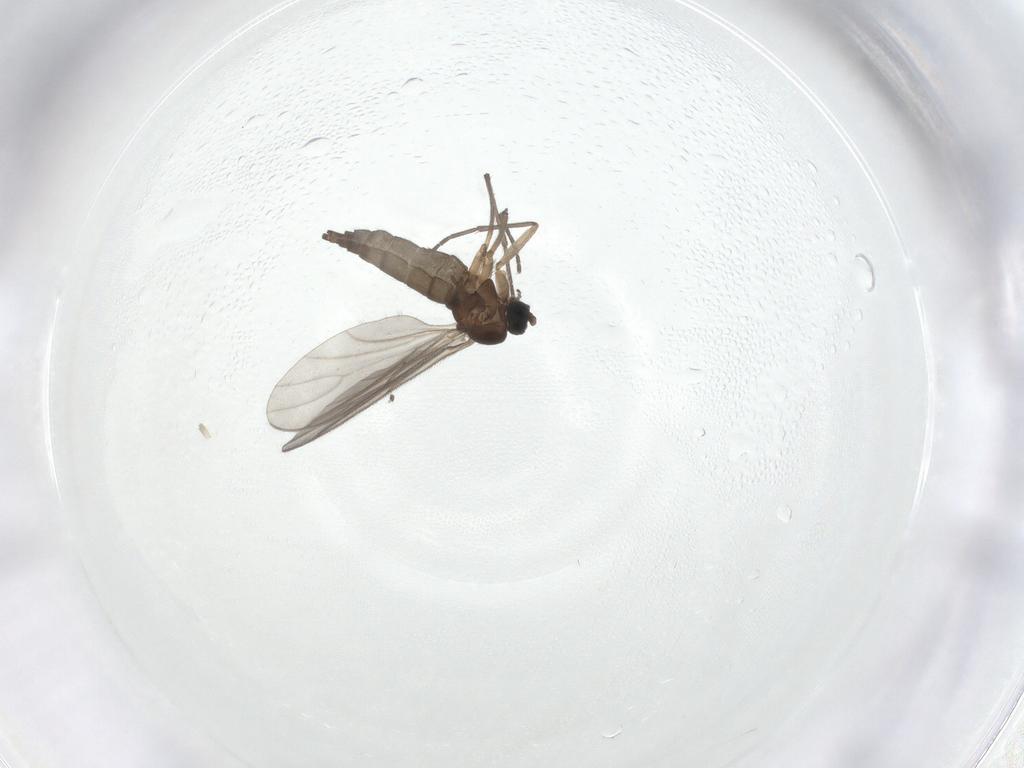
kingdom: Animalia
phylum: Arthropoda
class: Insecta
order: Diptera
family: Sciaridae
